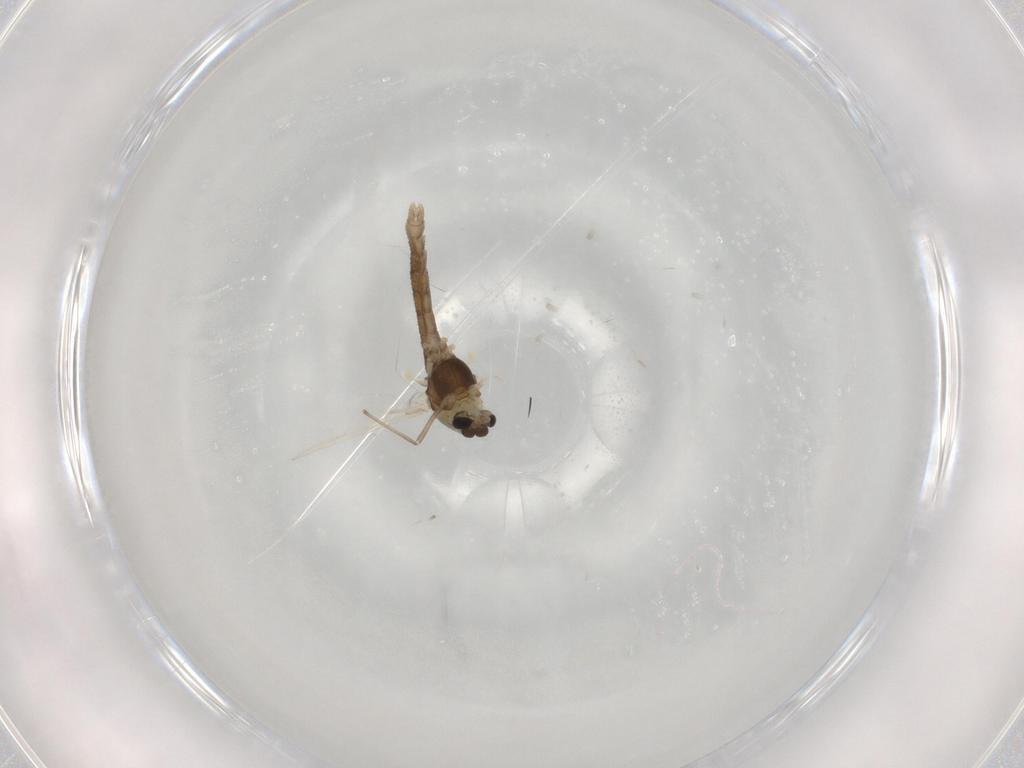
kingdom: Animalia
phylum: Arthropoda
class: Insecta
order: Diptera
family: Chironomidae
